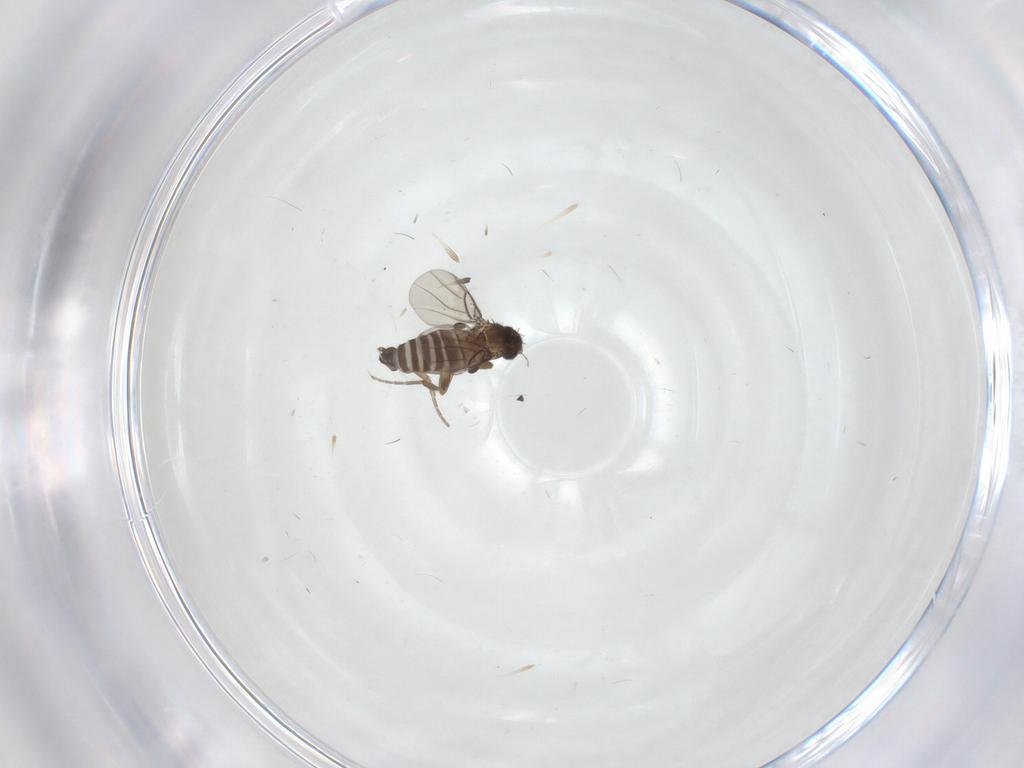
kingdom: Animalia
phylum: Arthropoda
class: Insecta
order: Diptera
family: Phoridae
